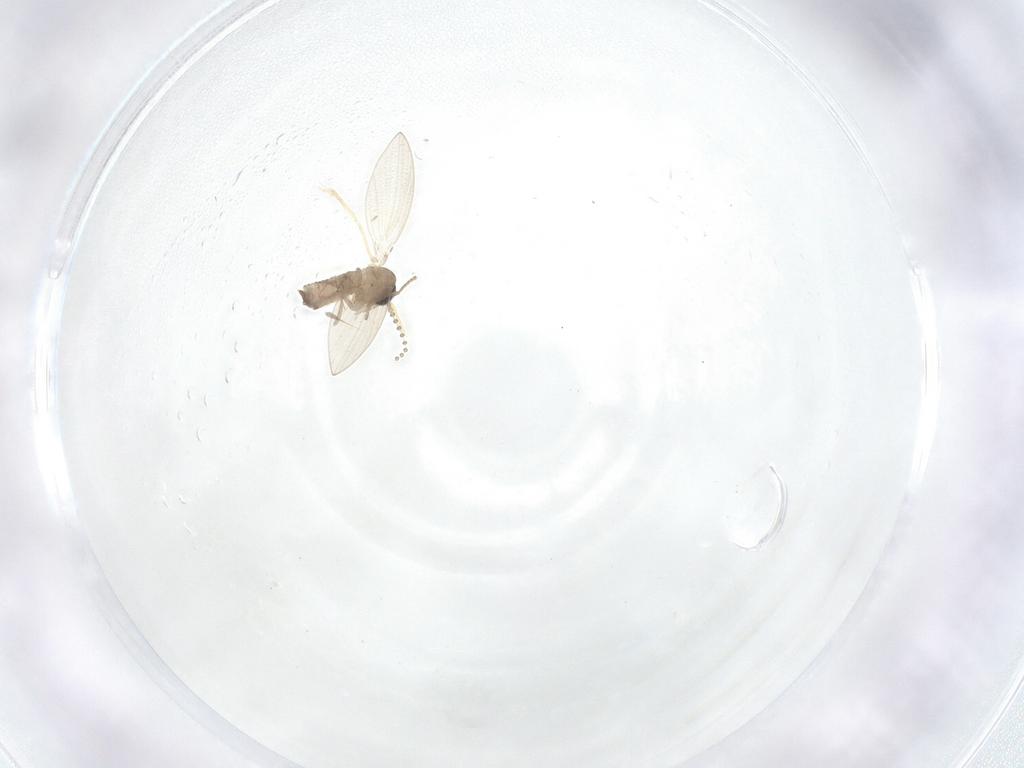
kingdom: Animalia
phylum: Arthropoda
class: Insecta
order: Diptera
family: Psychodidae
